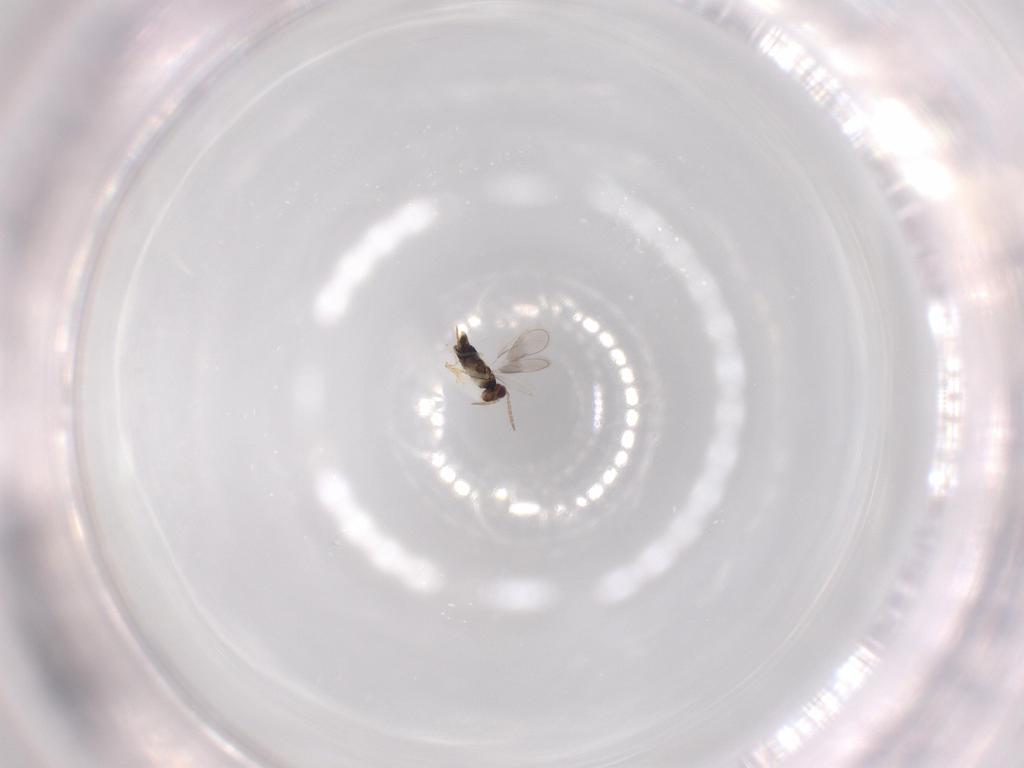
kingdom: Animalia
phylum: Arthropoda
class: Insecta
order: Hymenoptera
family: Aphelinidae
